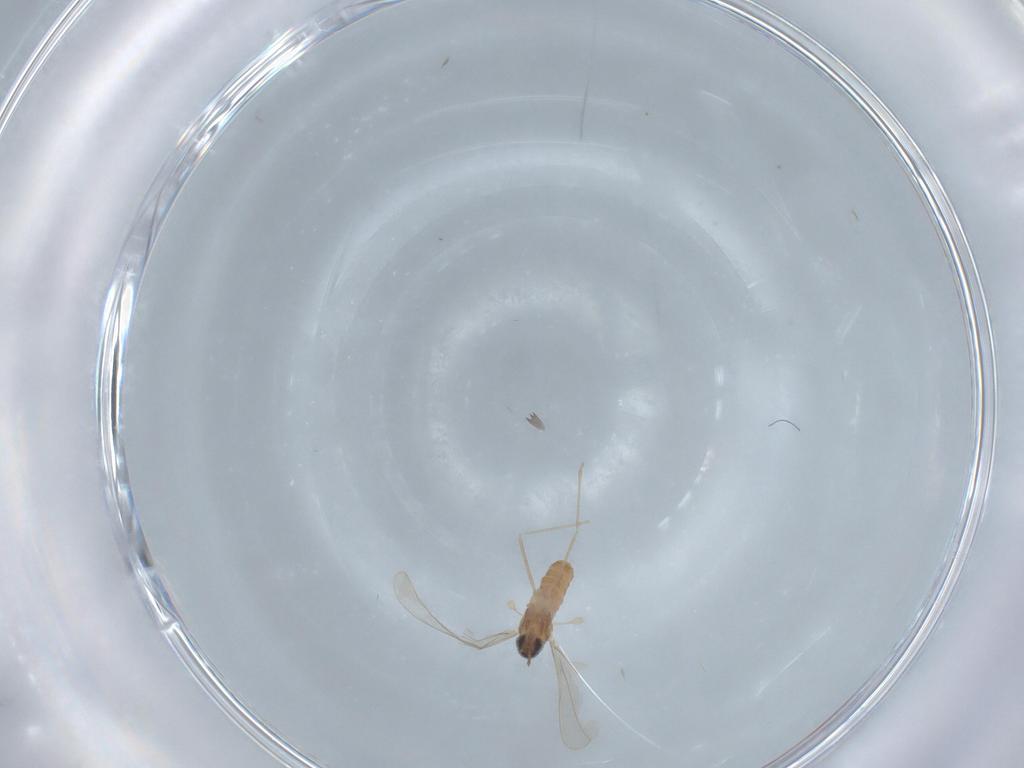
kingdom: Animalia
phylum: Arthropoda
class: Insecta
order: Diptera
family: Cecidomyiidae
